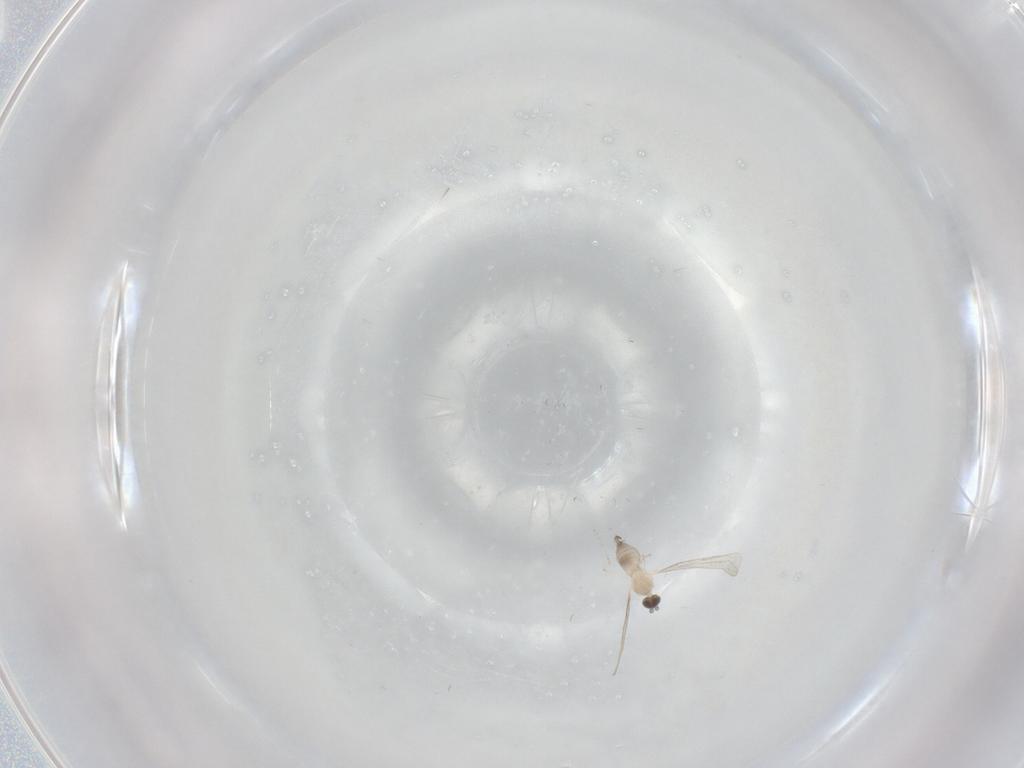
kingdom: Animalia
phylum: Arthropoda
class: Insecta
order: Diptera
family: Cecidomyiidae
